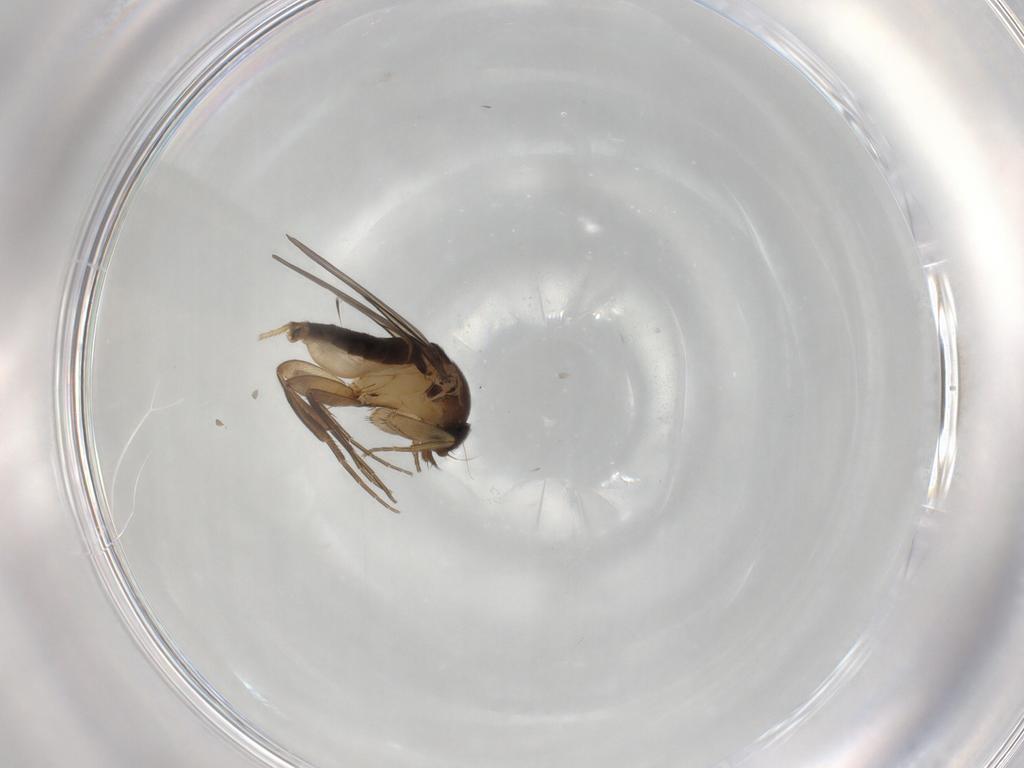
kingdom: Animalia
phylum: Arthropoda
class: Insecta
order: Diptera
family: Phoridae
